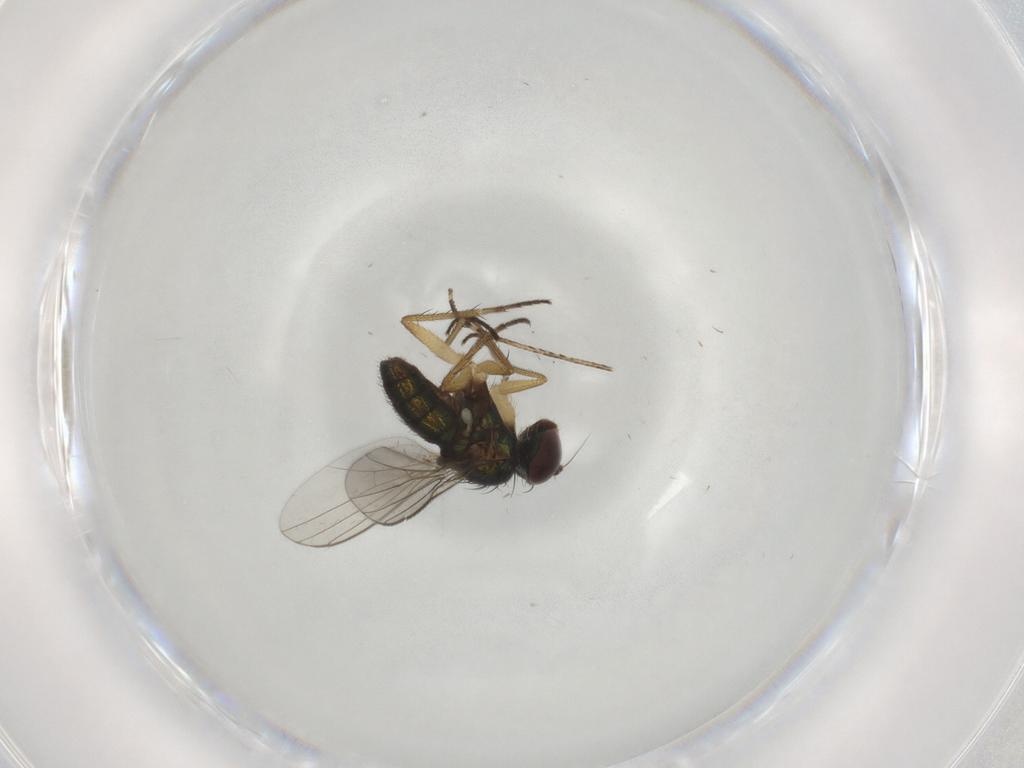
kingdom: Animalia
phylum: Arthropoda
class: Insecta
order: Diptera
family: Dolichopodidae
